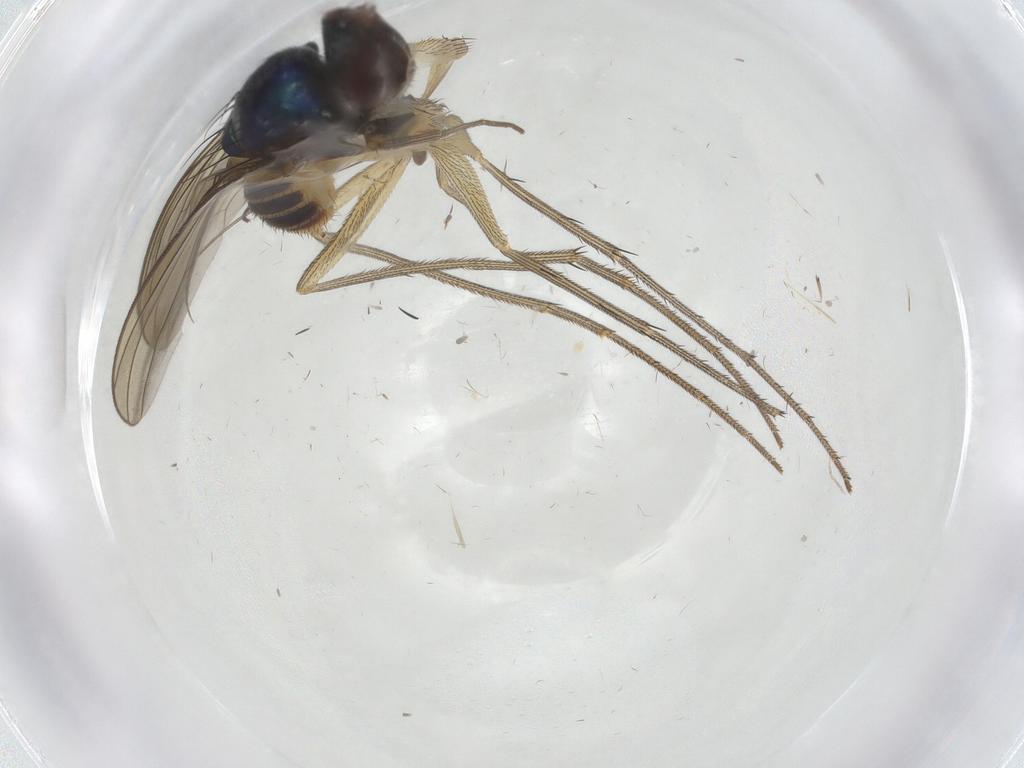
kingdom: Animalia
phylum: Arthropoda
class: Insecta
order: Diptera
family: Dolichopodidae
